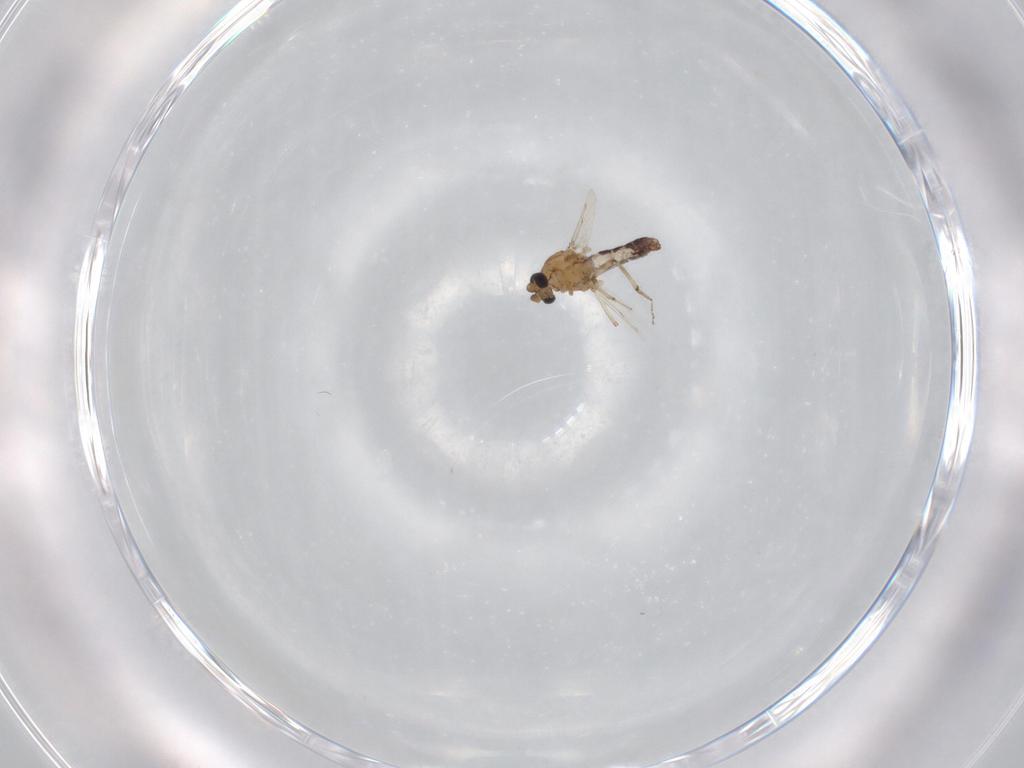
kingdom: Animalia
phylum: Arthropoda
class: Insecta
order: Diptera
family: Ceratopogonidae
